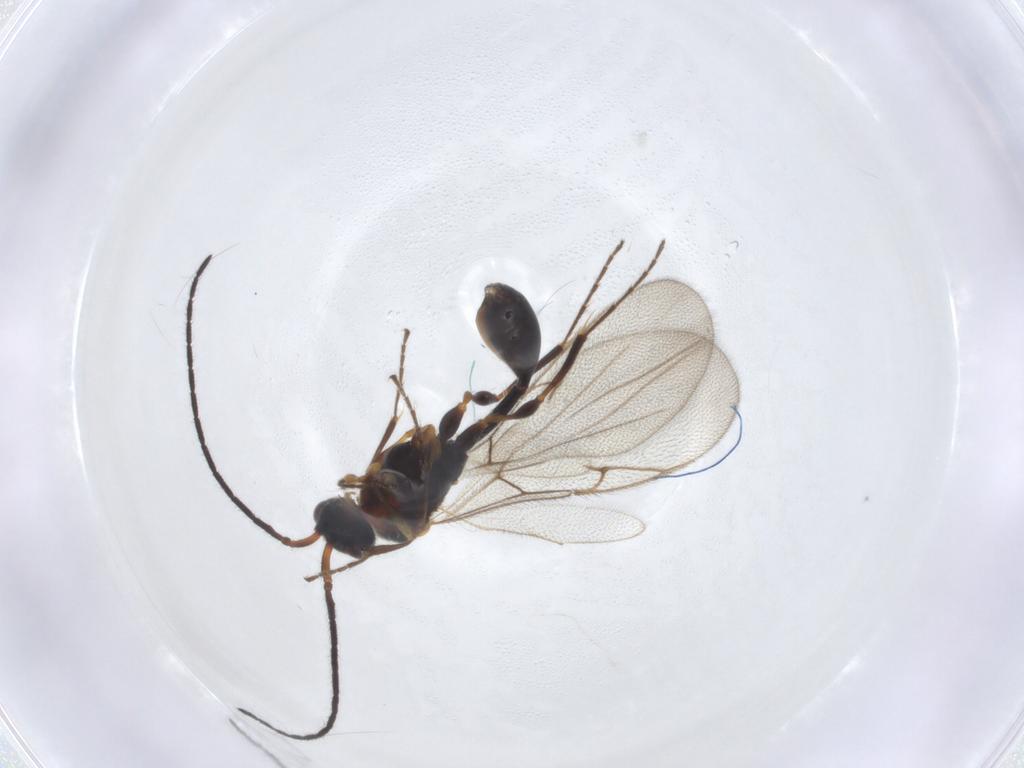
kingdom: Animalia
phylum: Arthropoda
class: Insecta
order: Hymenoptera
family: Diapriidae
